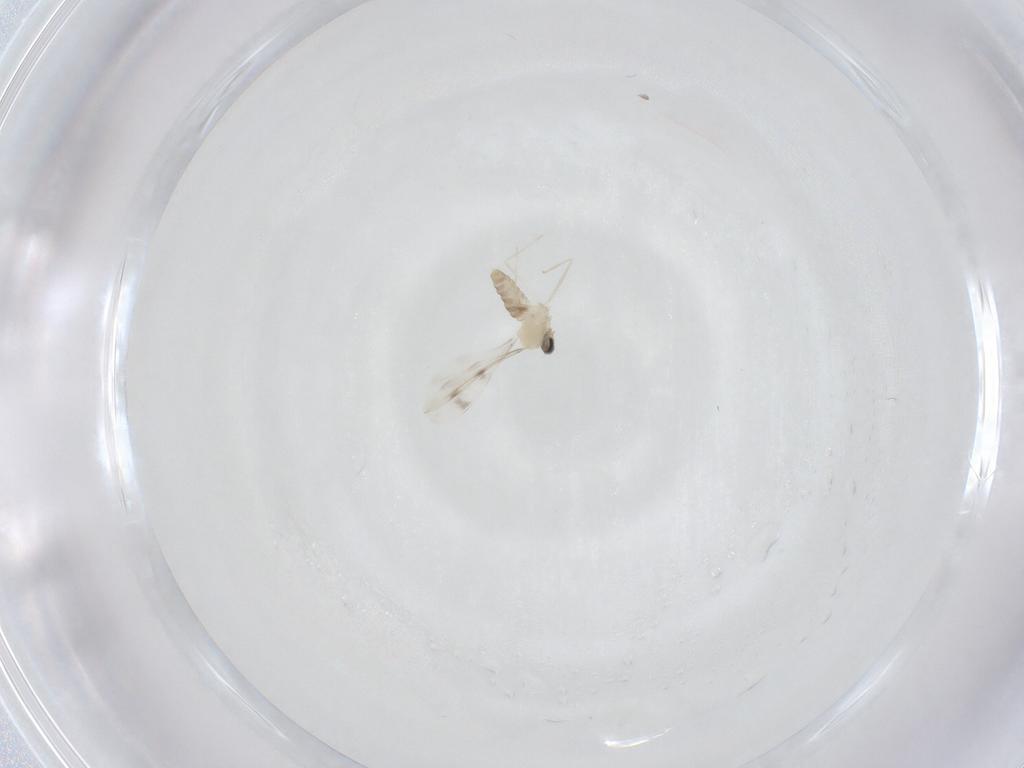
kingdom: Animalia
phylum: Arthropoda
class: Insecta
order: Diptera
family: Cecidomyiidae
